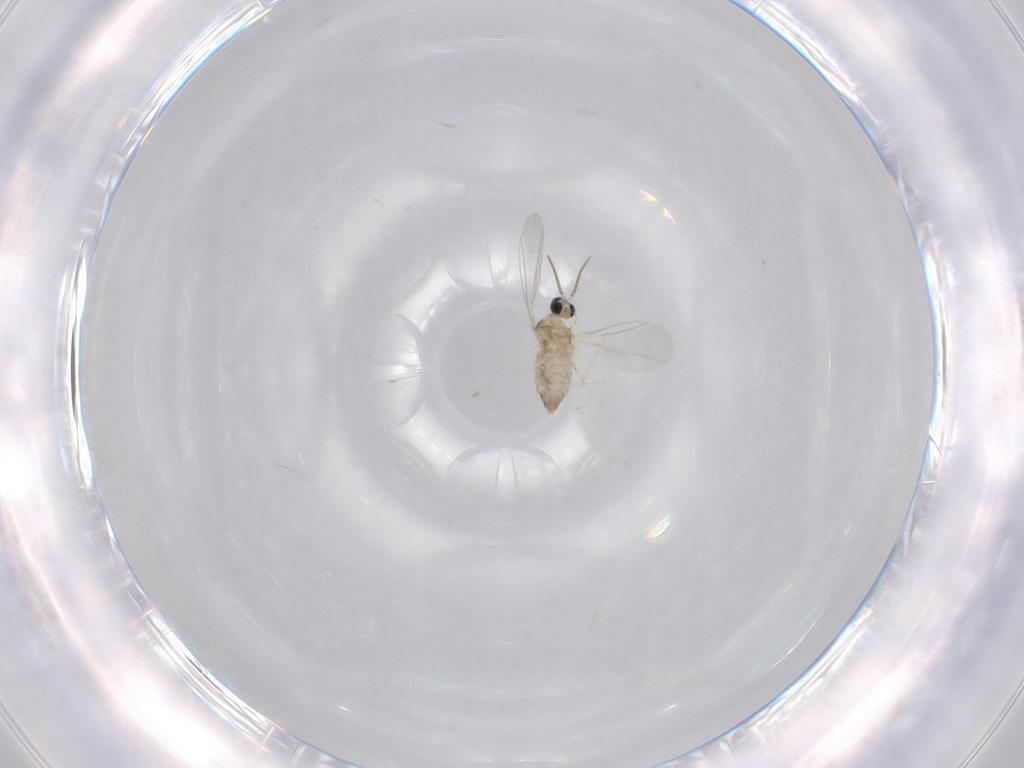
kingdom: Animalia
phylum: Arthropoda
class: Insecta
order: Diptera
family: Cecidomyiidae
